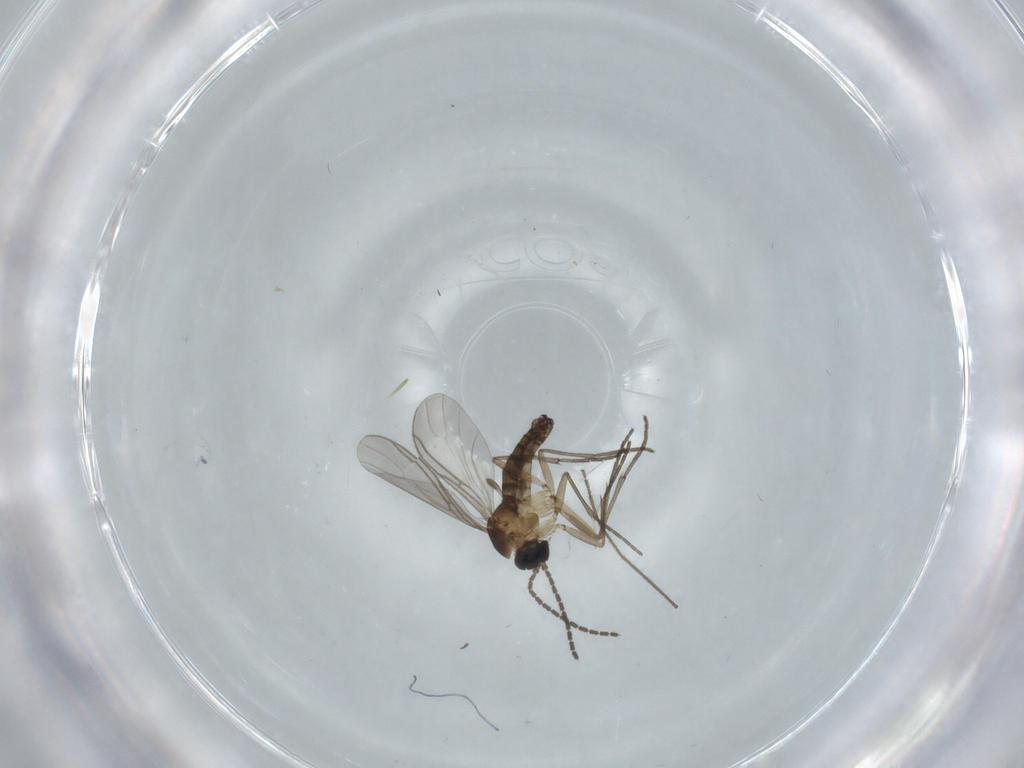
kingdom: Animalia
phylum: Arthropoda
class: Insecta
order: Diptera
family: Sciaridae
